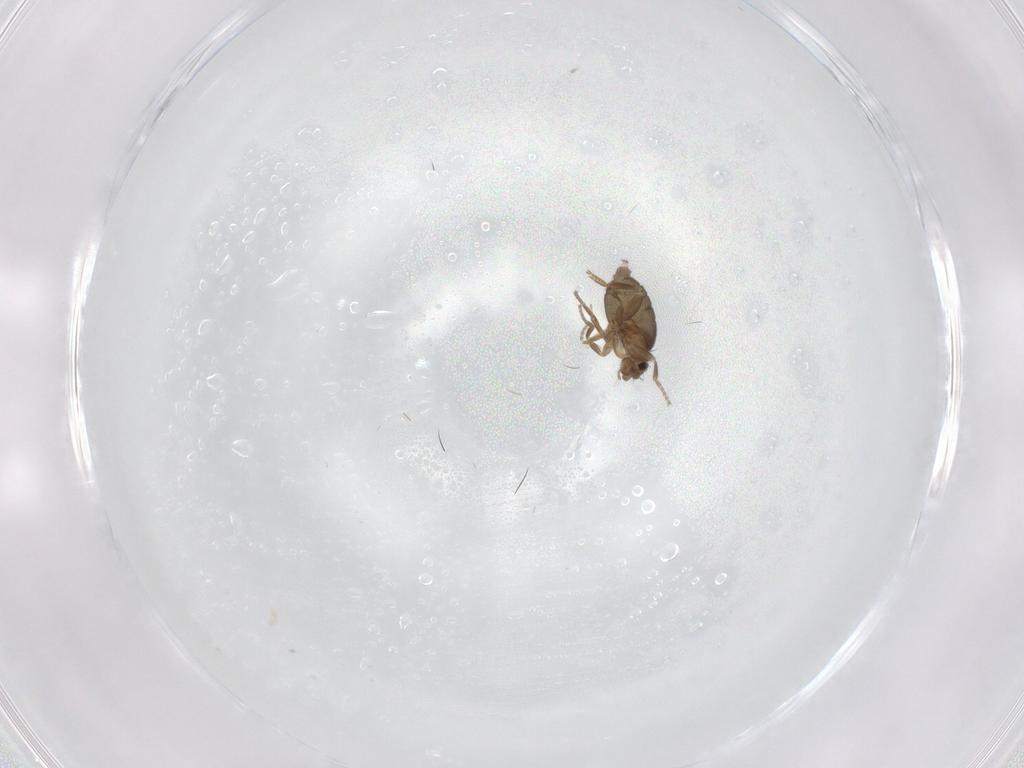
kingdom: Animalia
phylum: Arthropoda
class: Insecta
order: Diptera
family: Phoridae
